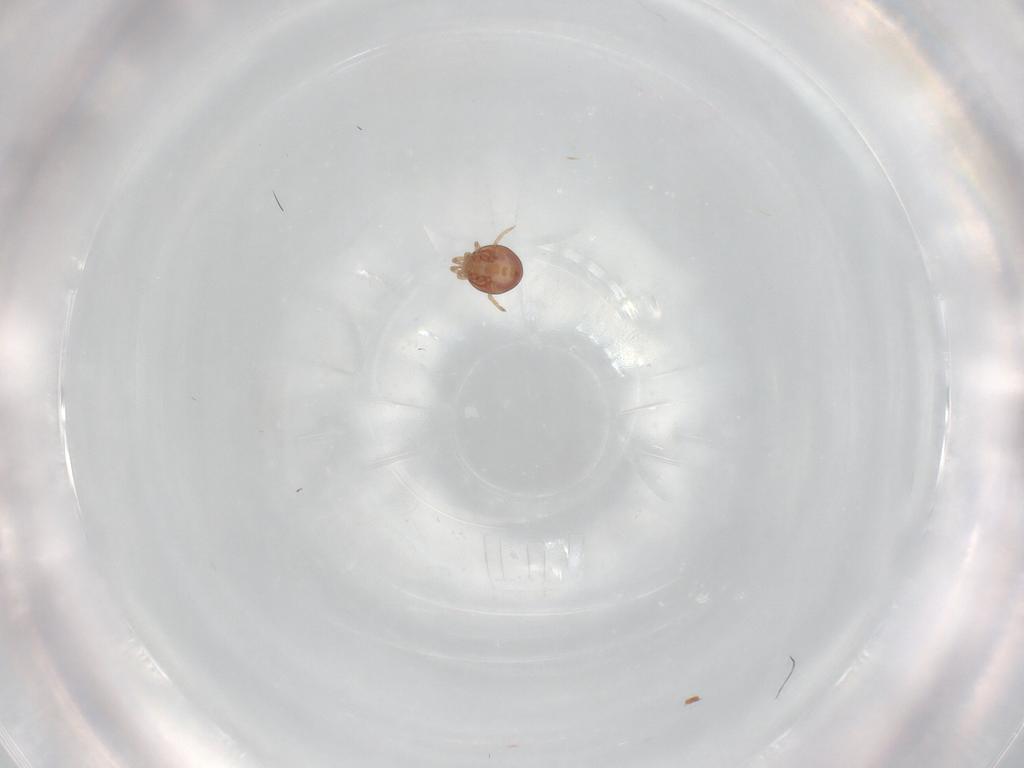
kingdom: Animalia
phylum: Arthropoda
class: Arachnida
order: Mesostigmata
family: Phytoseiidae
